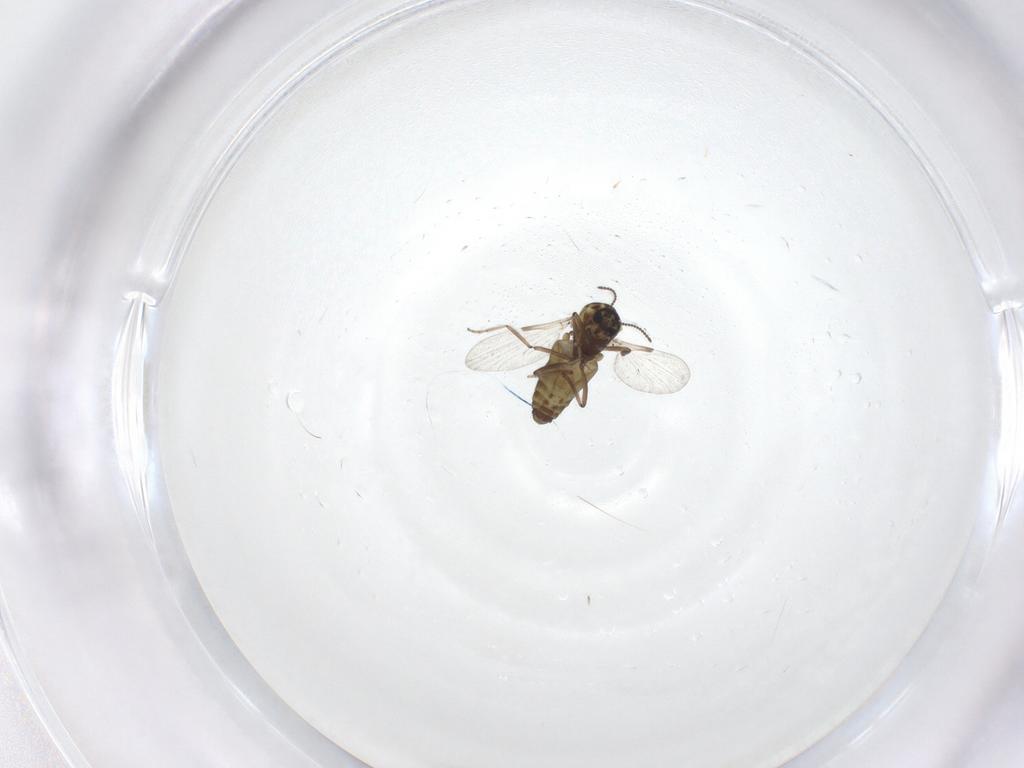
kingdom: Animalia
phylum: Arthropoda
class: Insecta
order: Diptera
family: Ceratopogonidae
